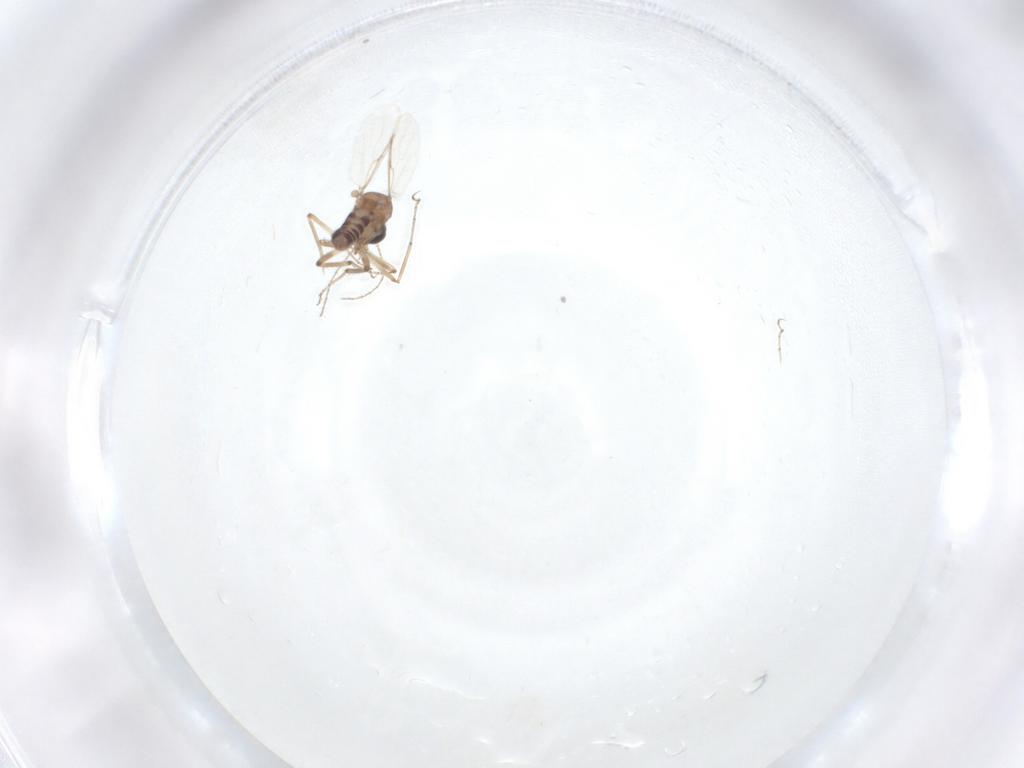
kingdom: Animalia
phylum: Arthropoda
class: Insecta
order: Diptera
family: Ceratopogonidae
